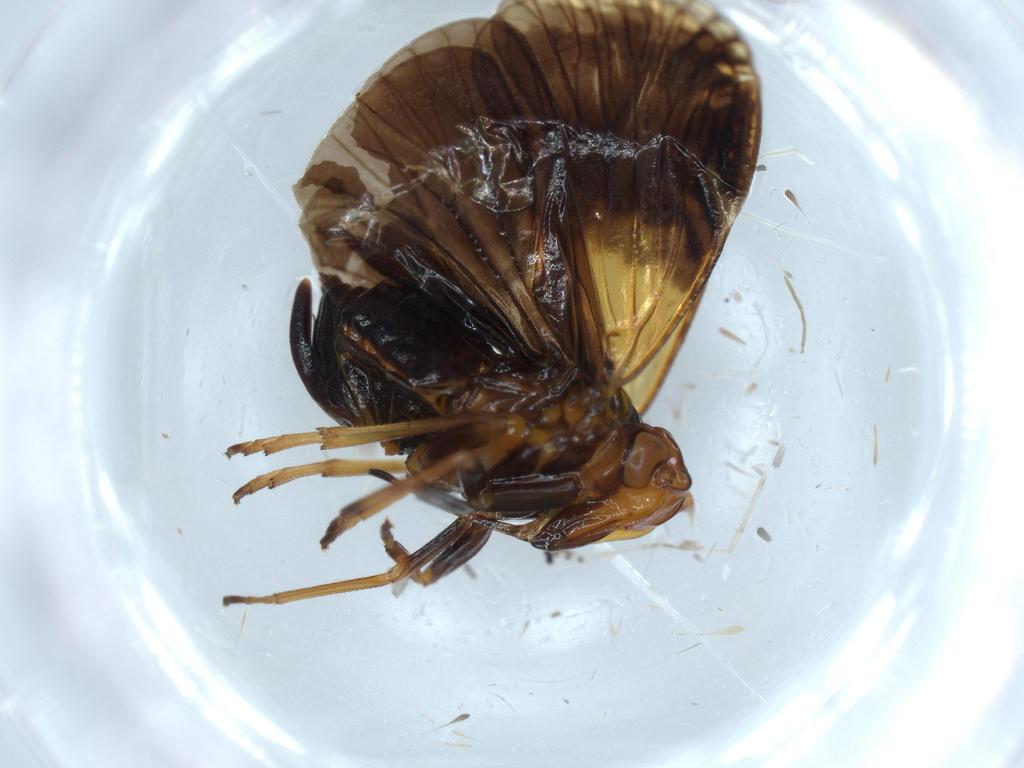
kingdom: Animalia
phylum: Arthropoda
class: Insecta
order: Hemiptera
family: Cixiidae
